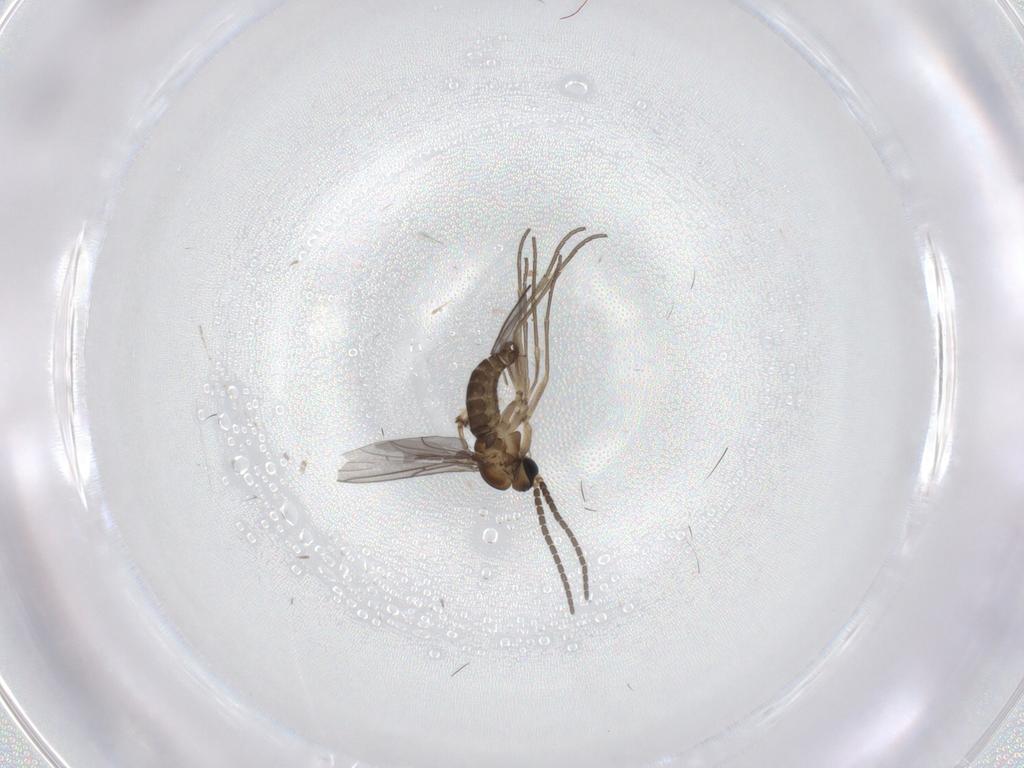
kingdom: Animalia
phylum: Arthropoda
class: Insecta
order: Diptera
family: Sciaridae
